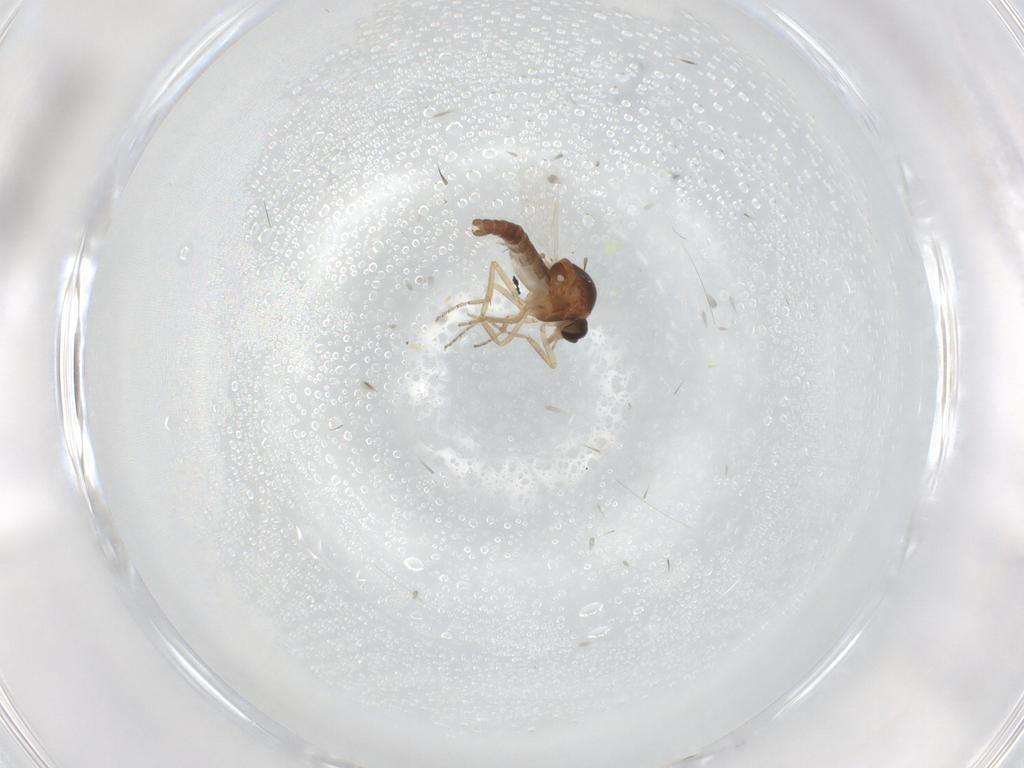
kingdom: Animalia
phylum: Arthropoda
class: Insecta
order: Diptera
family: Ceratopogonidae
